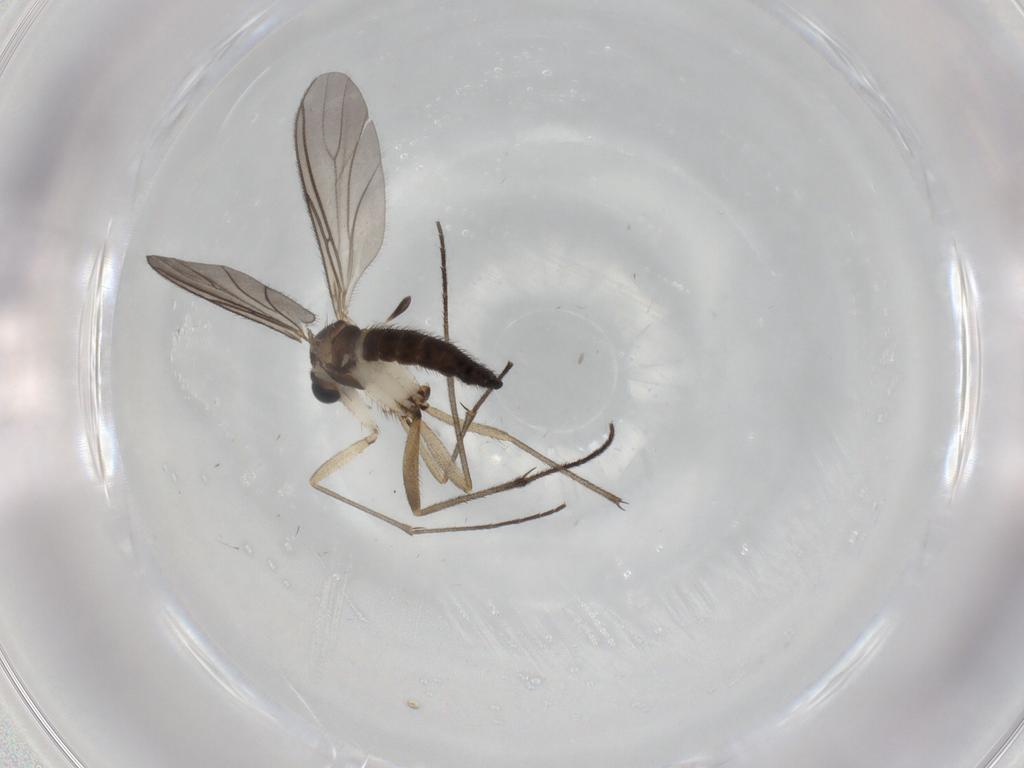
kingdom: Animalia
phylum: Arthropoda
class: Insecta
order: Diptera
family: Sciaridae
